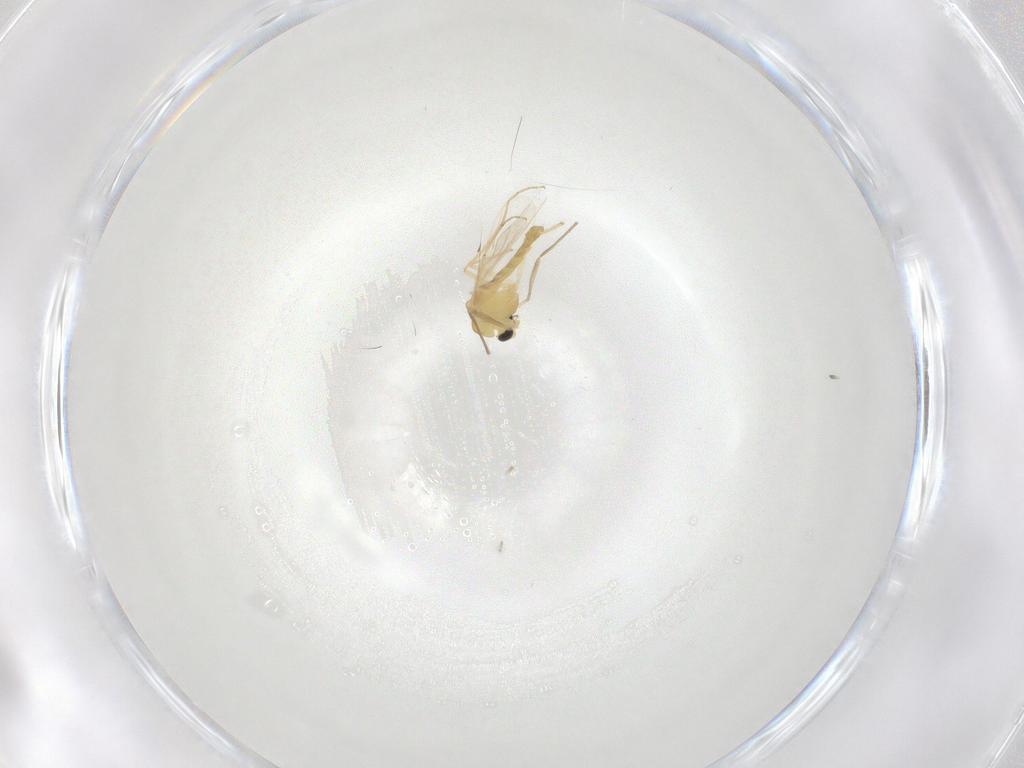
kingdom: Animalia
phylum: Arthropoda
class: Insecta
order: Diptera
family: Chironomidae
